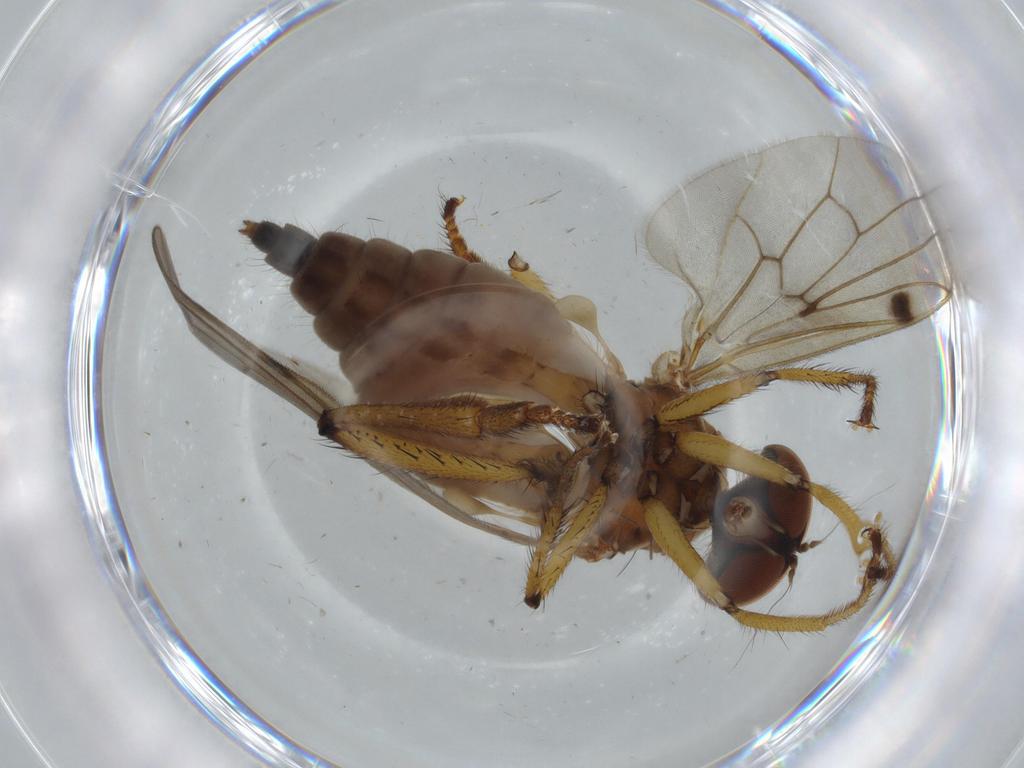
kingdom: Animalia
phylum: Arthropoda
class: Insecta
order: Diptera
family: Hybotidae
